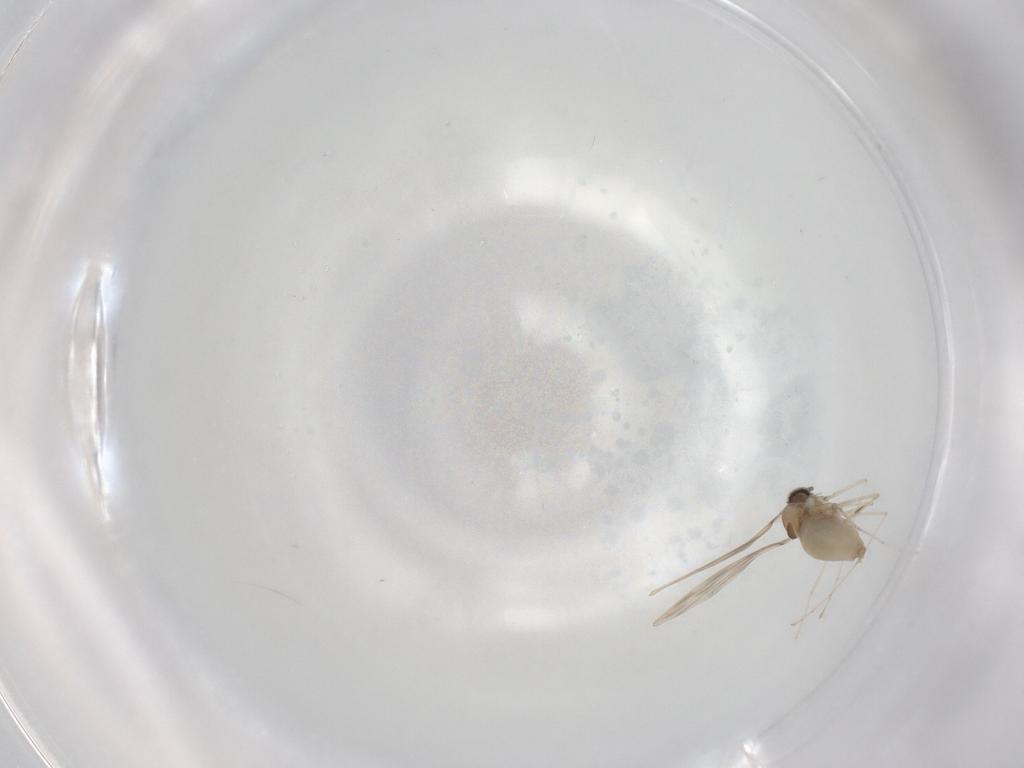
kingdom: Animalia
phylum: Arthropoda
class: Insecta
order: Diptera
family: Cecidomyiidae
